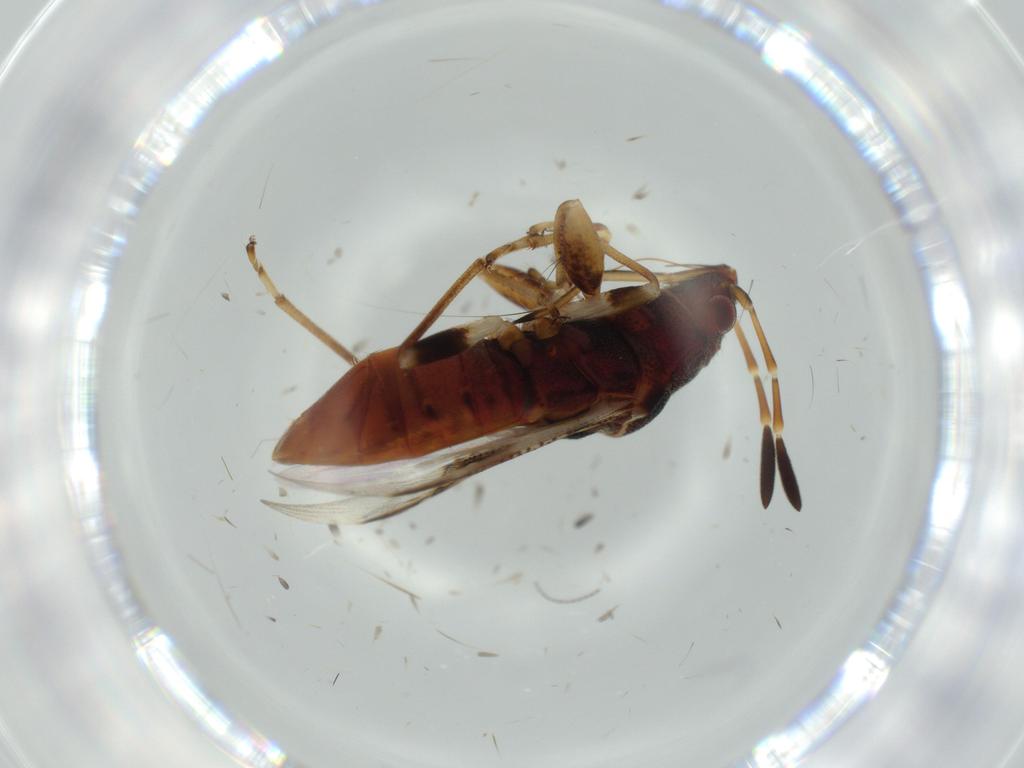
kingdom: Animalia
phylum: Arthropoda
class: Insecta
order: Hemiptera
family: Rhyparochromidae
